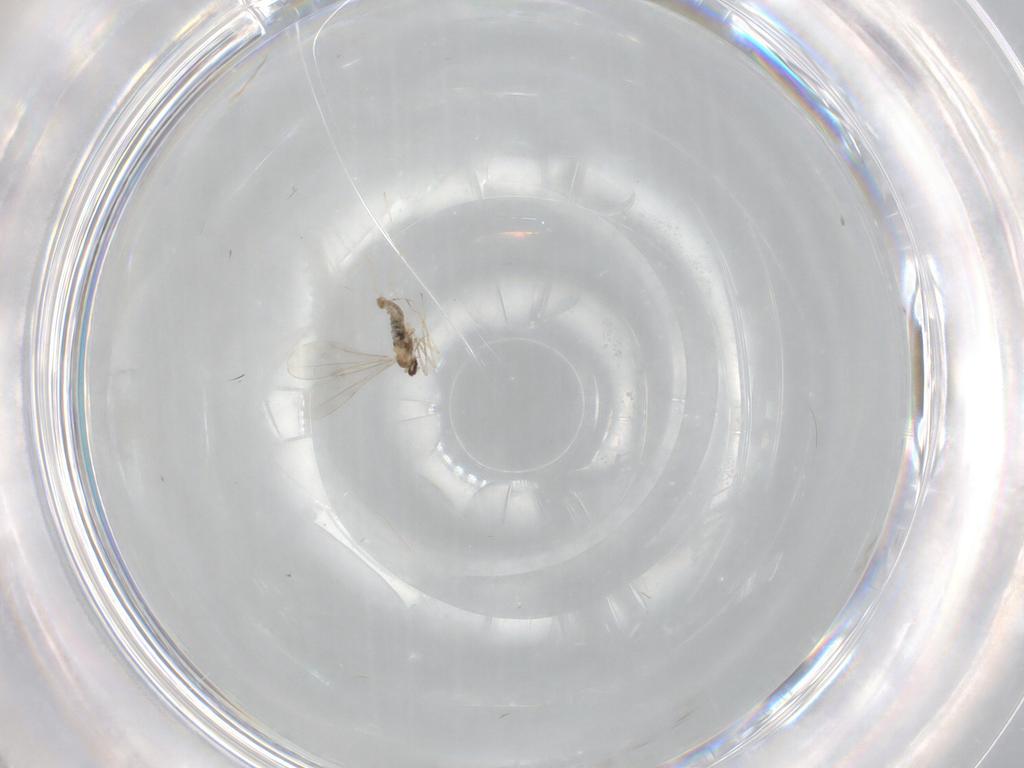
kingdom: Animalia
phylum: Arthropoda
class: Insecta
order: Diptera
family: Cecidomyiidae
